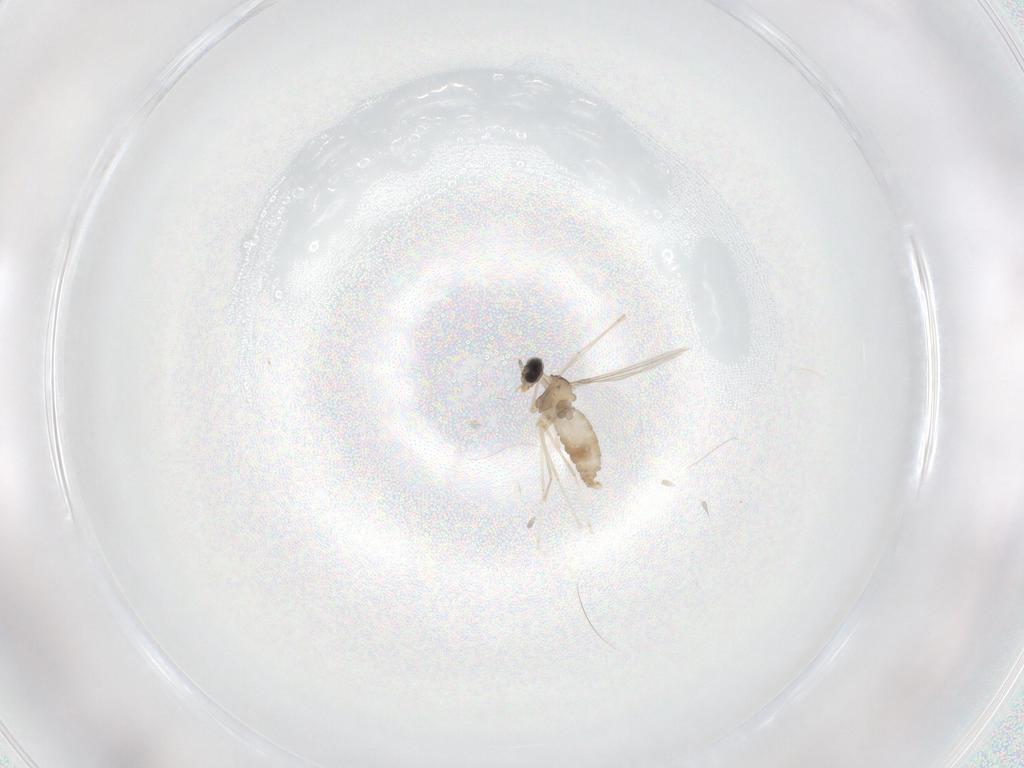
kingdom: Animalia
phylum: Arthropoda
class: Insecta
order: Diptera
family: Cecidomyiidae
